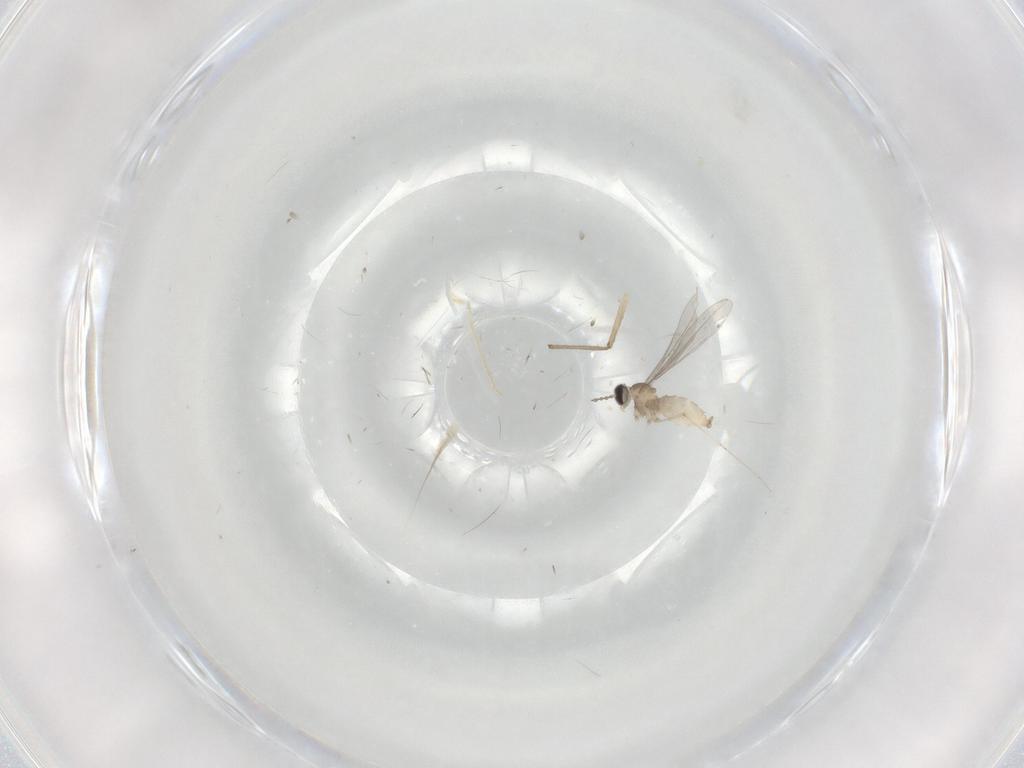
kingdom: Animalia
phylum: Arthropoda
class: Insecta
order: Diptera
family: Cecidomyiidae
